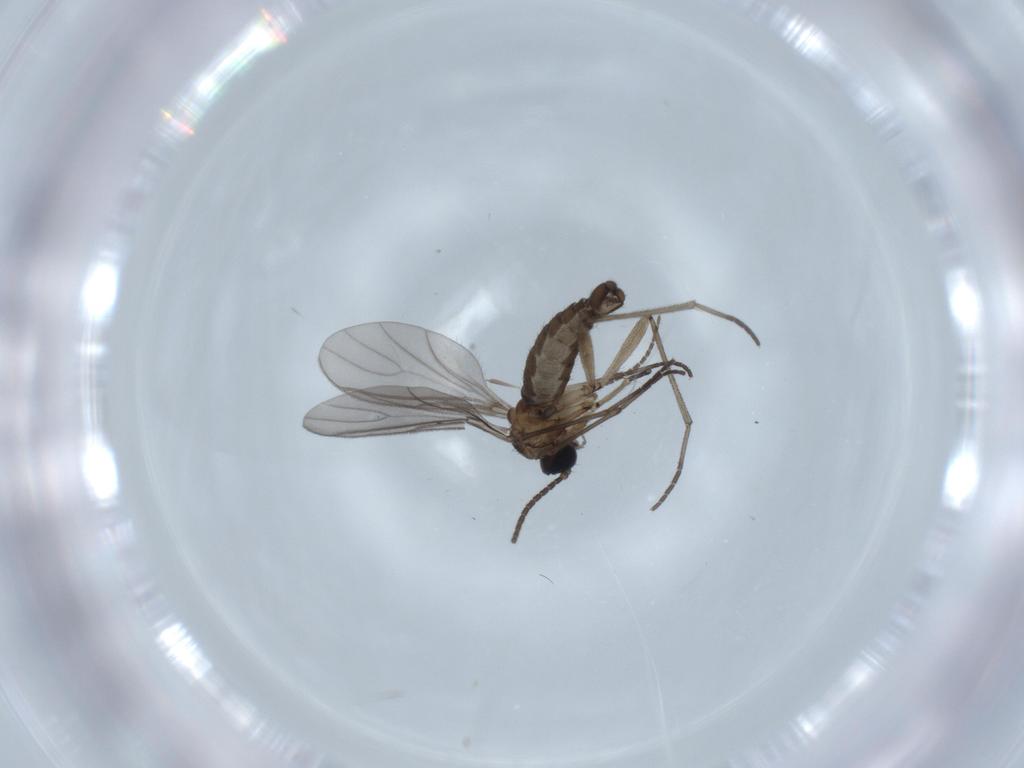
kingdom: Animalia
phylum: Arthropoda
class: Insecta
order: Diptera
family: Sciaridae
